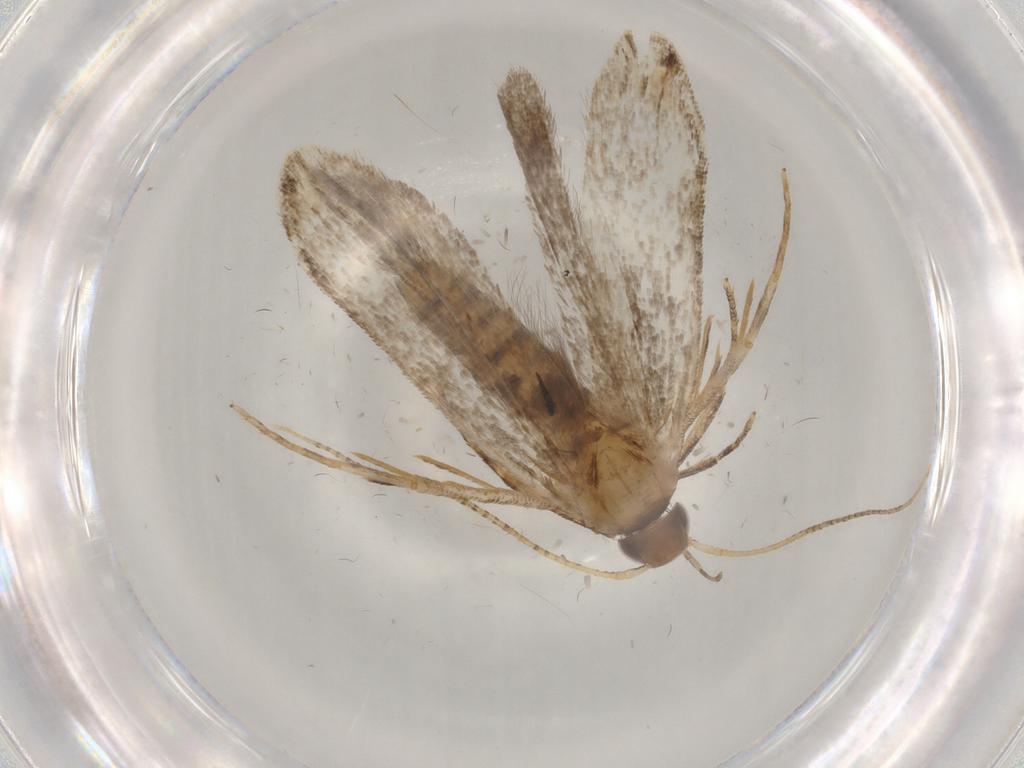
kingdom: Animalia
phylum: Arthropoda
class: Insecta
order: Lepidoptera
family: Gelechiidae
